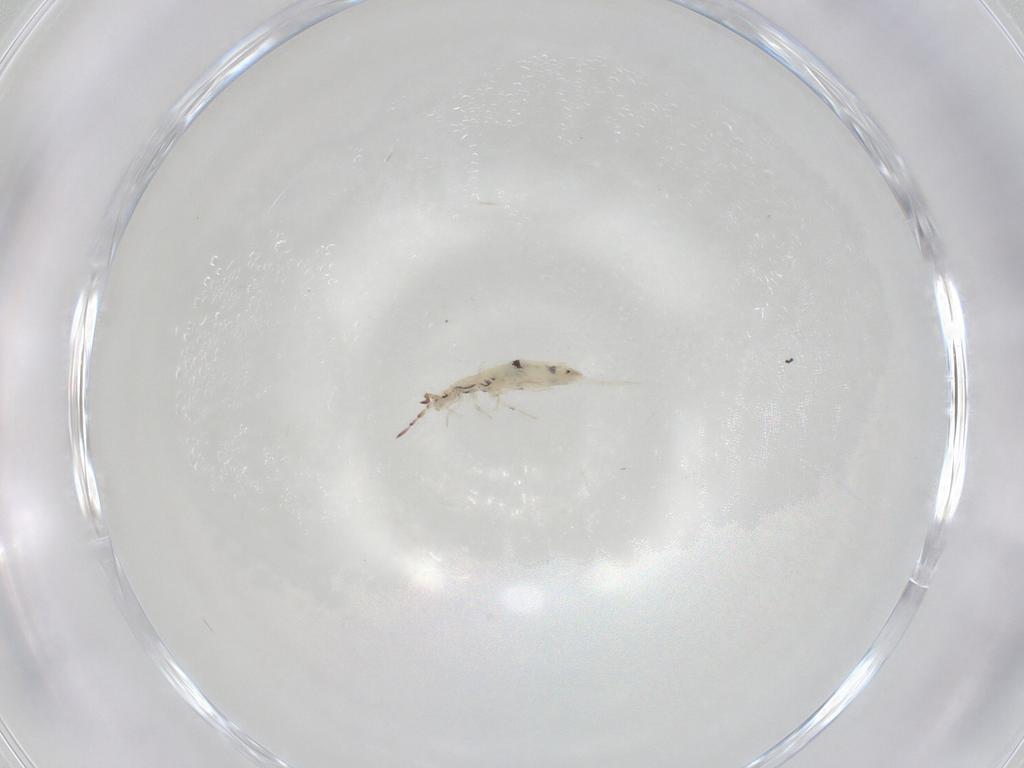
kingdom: Animalia
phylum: Arthropoda
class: Collembola
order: Entomobryomorpha
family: Entomobryidae
